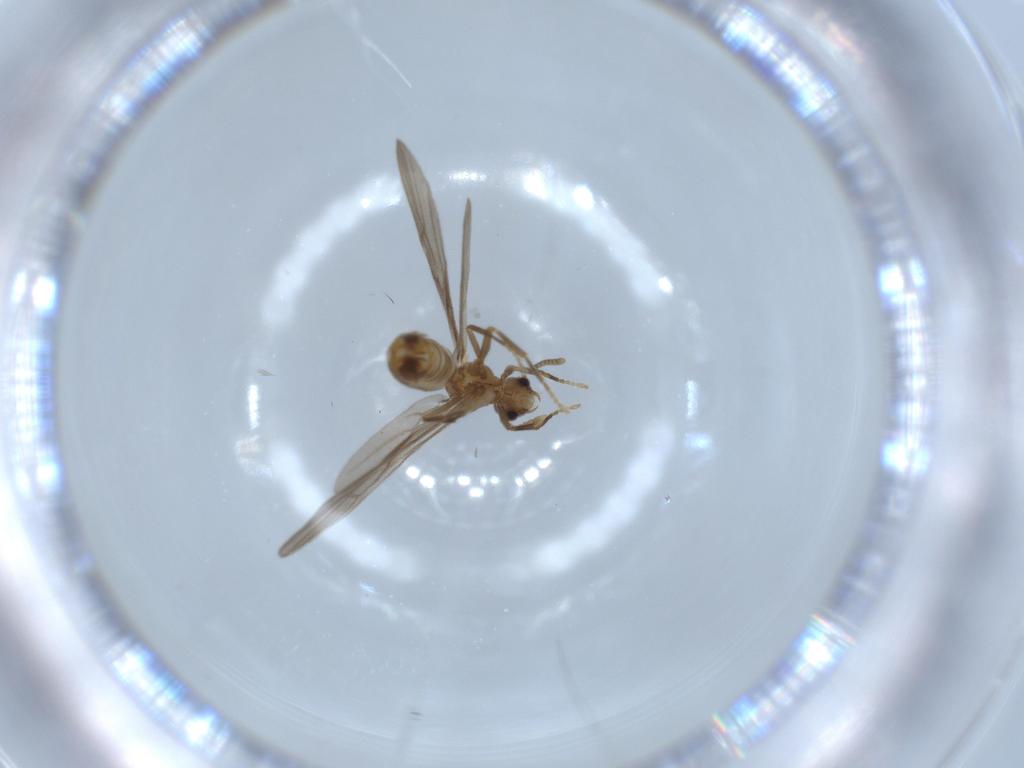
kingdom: Animalia
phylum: Arthropoda
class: Insecta
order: Hymenoptera
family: Formicidae
